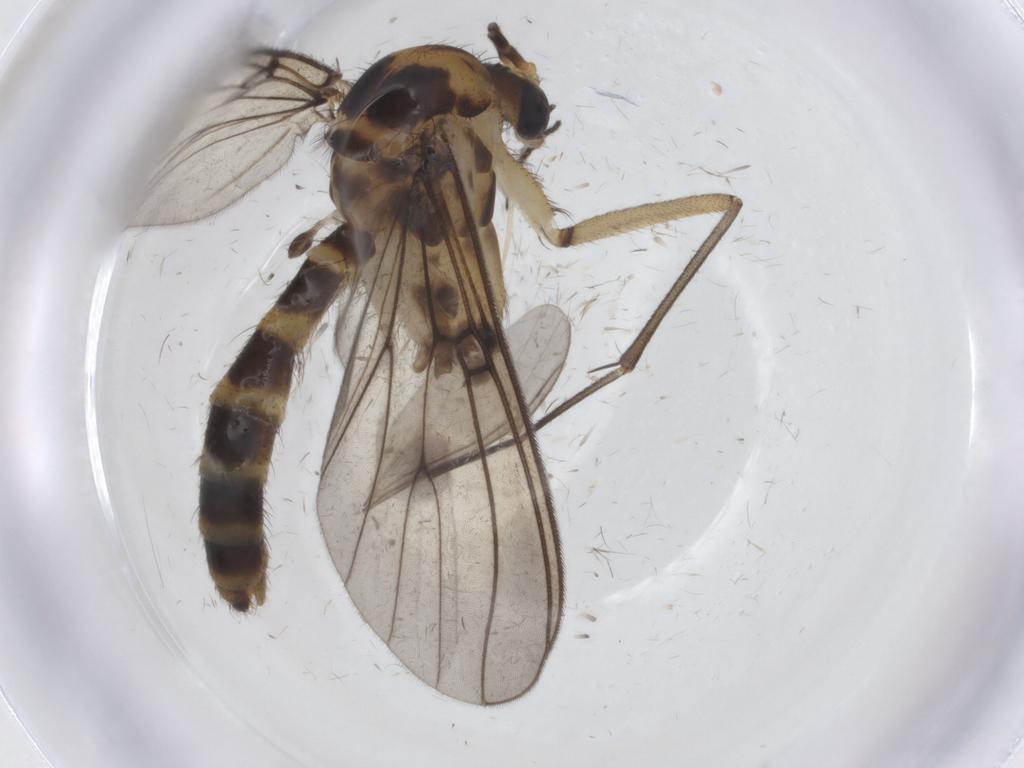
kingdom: Animalia
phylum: Arthropoda
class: Insecta
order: Diptera
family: Mycetophilidae
